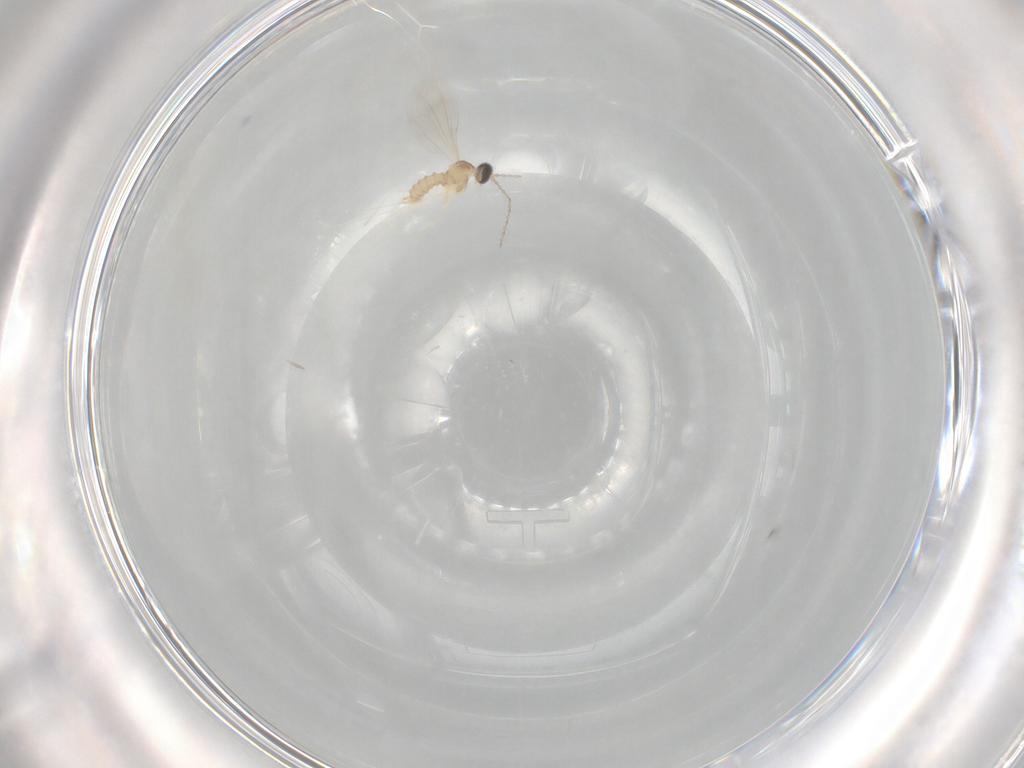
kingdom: Animalia
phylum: Arthropoda
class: Insecta
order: Diptera
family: Cecidomyiidae
